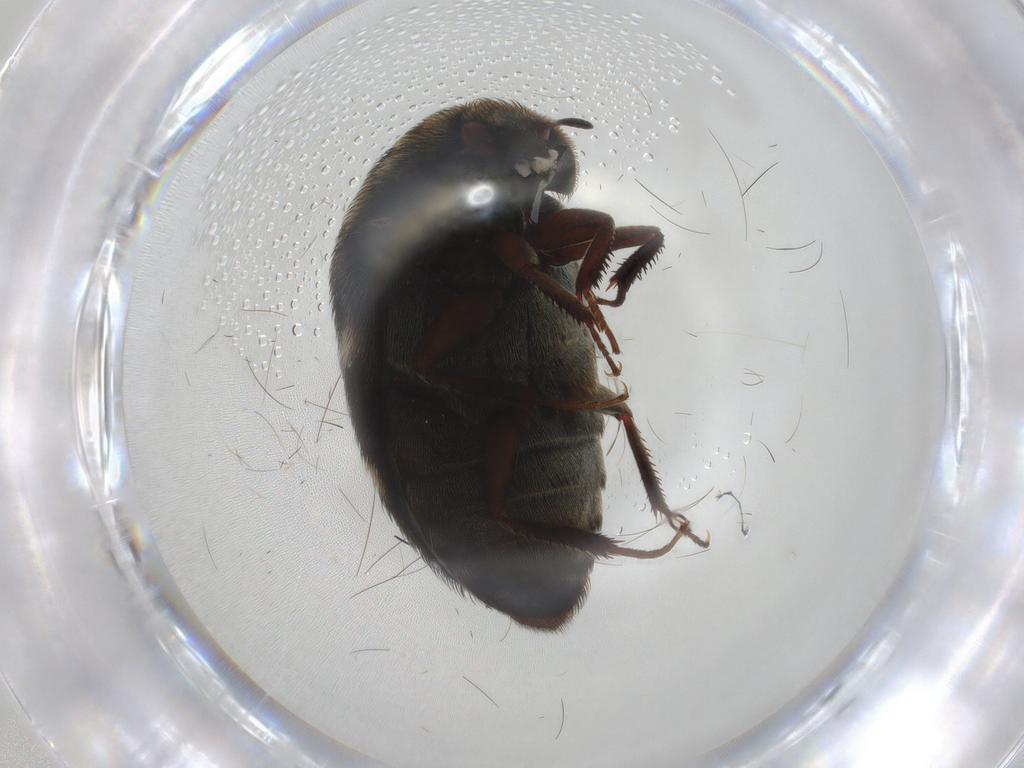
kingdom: Animalia
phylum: Arthropoda
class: Insecta
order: Coleoptera
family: Dermestidae
